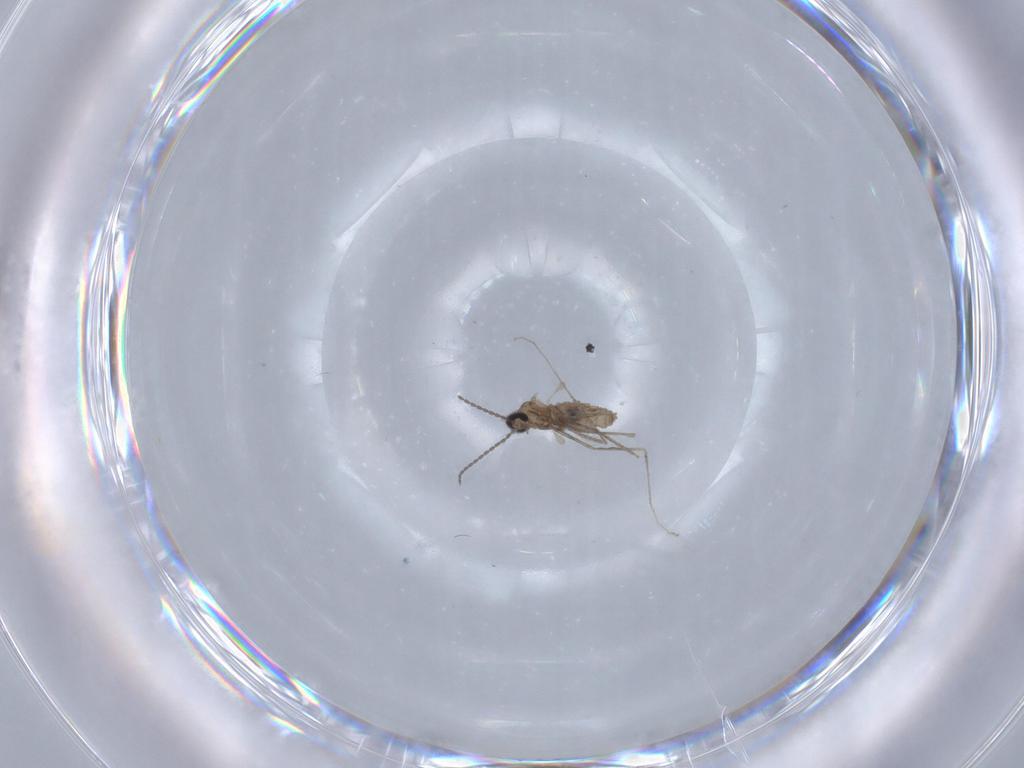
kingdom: Animalia
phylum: Arthropoda
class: Insecta
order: Diptera
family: Cecidomyiidae
